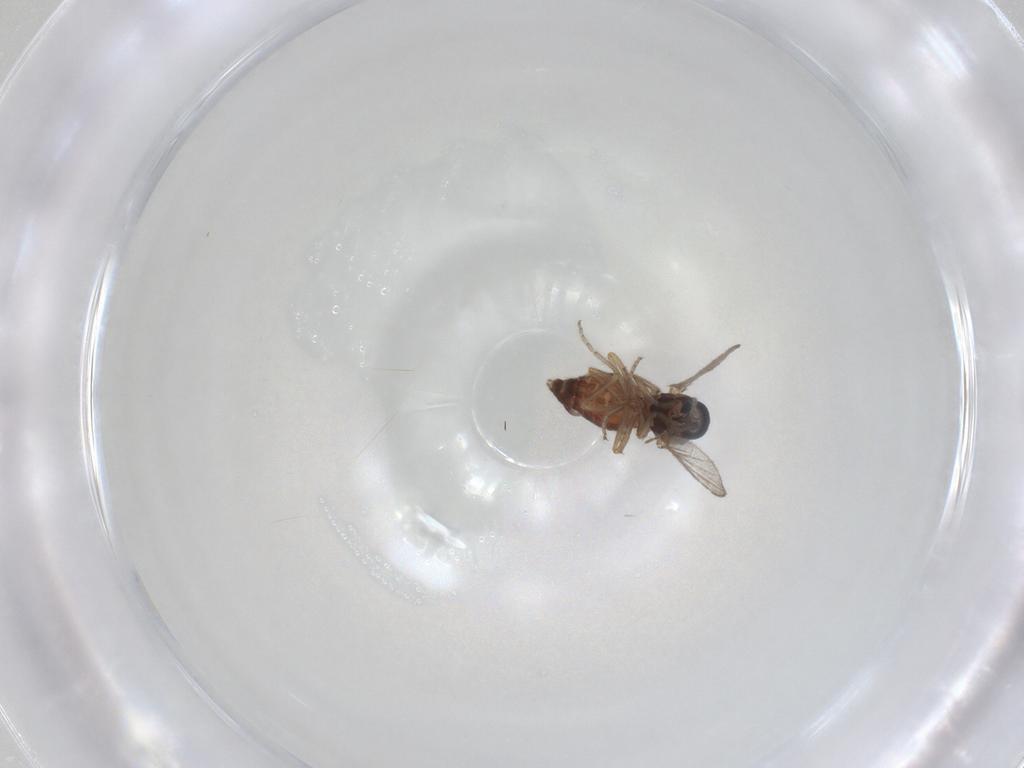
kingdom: Animalia
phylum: Arthropoda
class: Insecta
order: Diptera
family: Ceratopogonidae
